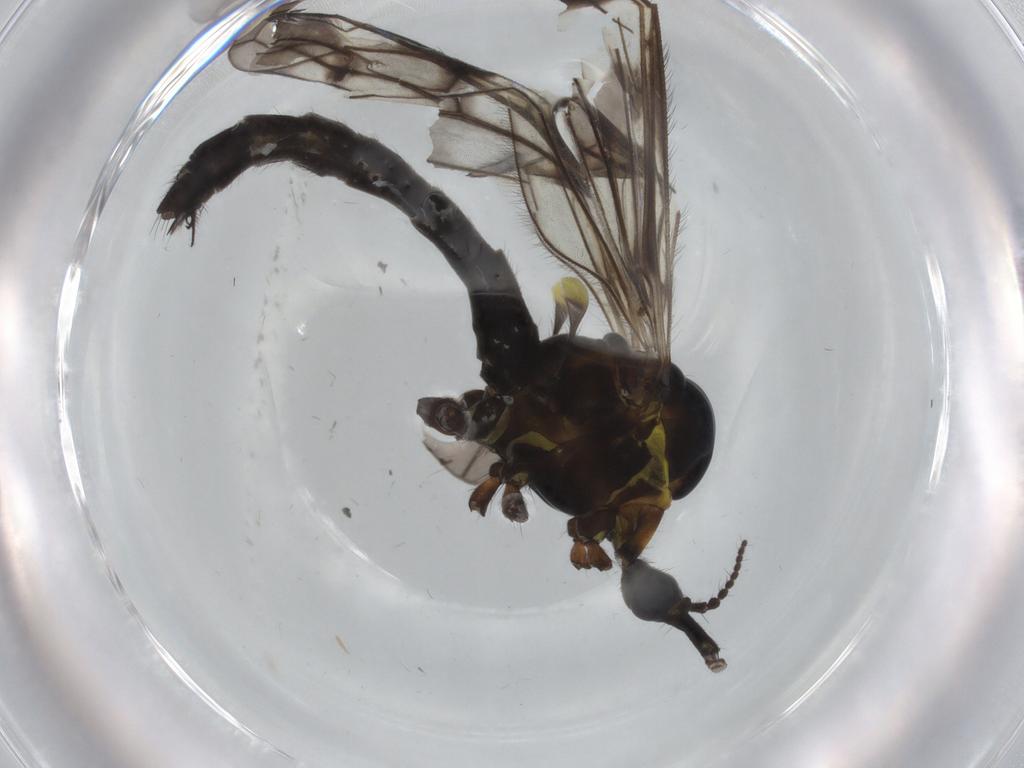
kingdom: Animalia
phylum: Arthropoda
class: Insecta
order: Diptera
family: Limoniidae
